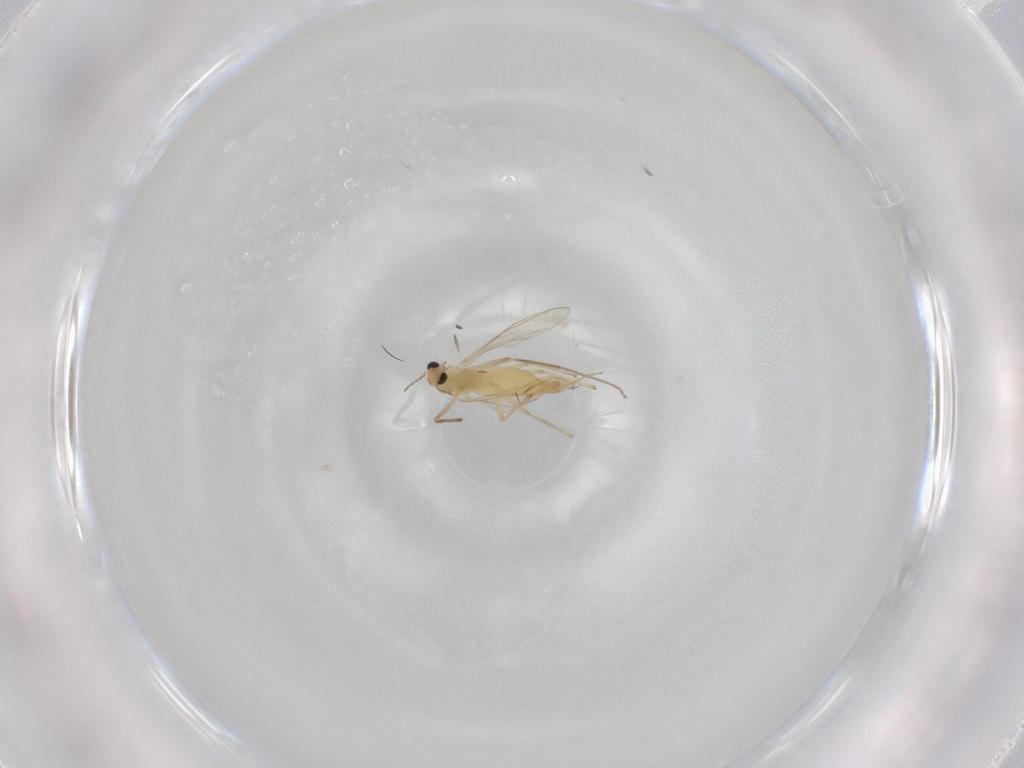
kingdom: Animalia
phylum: Arthropoda
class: Insecta
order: Diptera
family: Chironomidae
